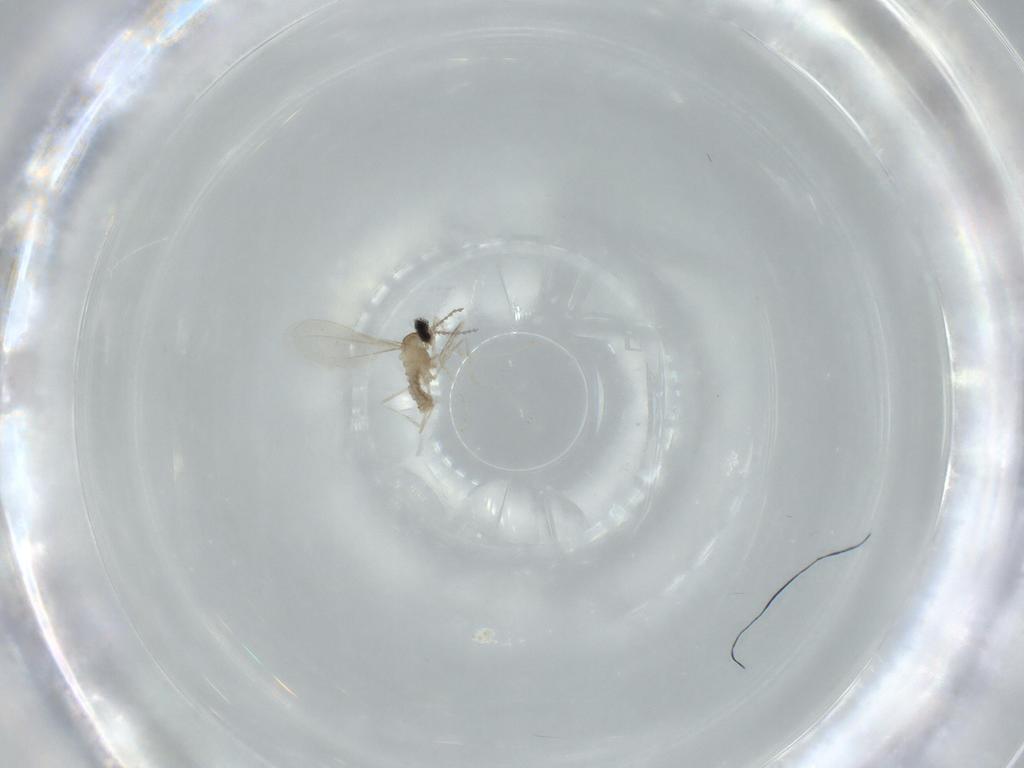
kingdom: Animalia
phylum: Arthropoda
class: Insecta
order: Diptera
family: Cecidomyiidae
